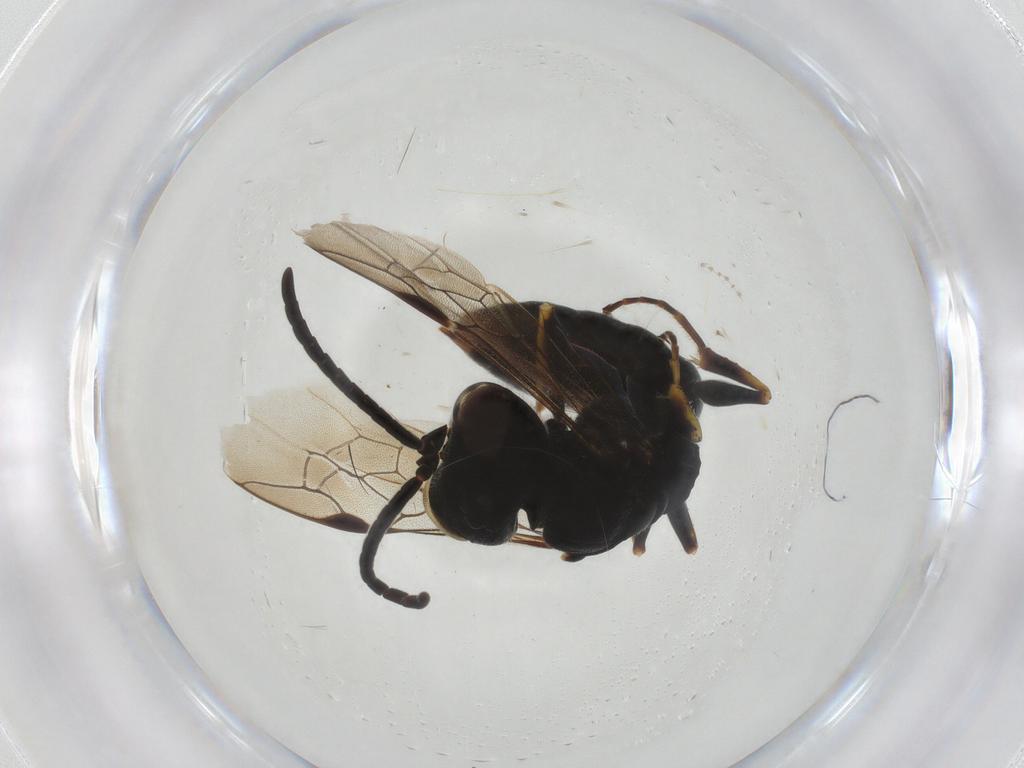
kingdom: Animalia
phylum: Arthropoda
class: Insecta
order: Hymenoptera
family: Pemphredonidae
